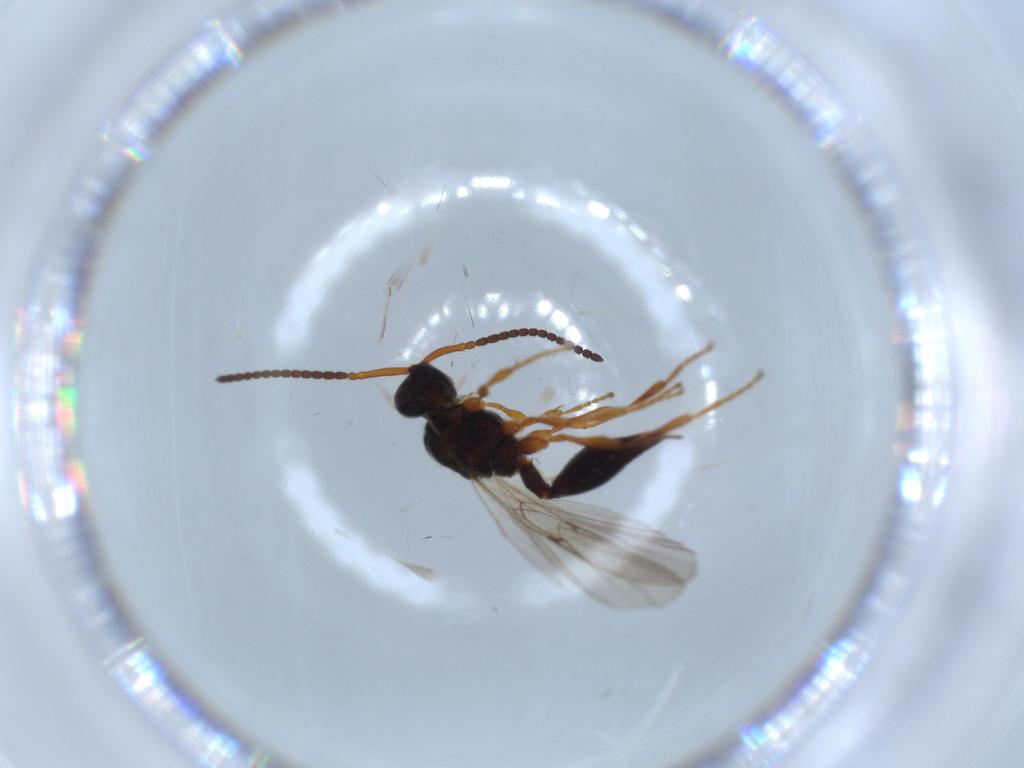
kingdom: Animalia
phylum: Arthropoda
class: Insecta
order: Hymenoptera
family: Diapriidae
